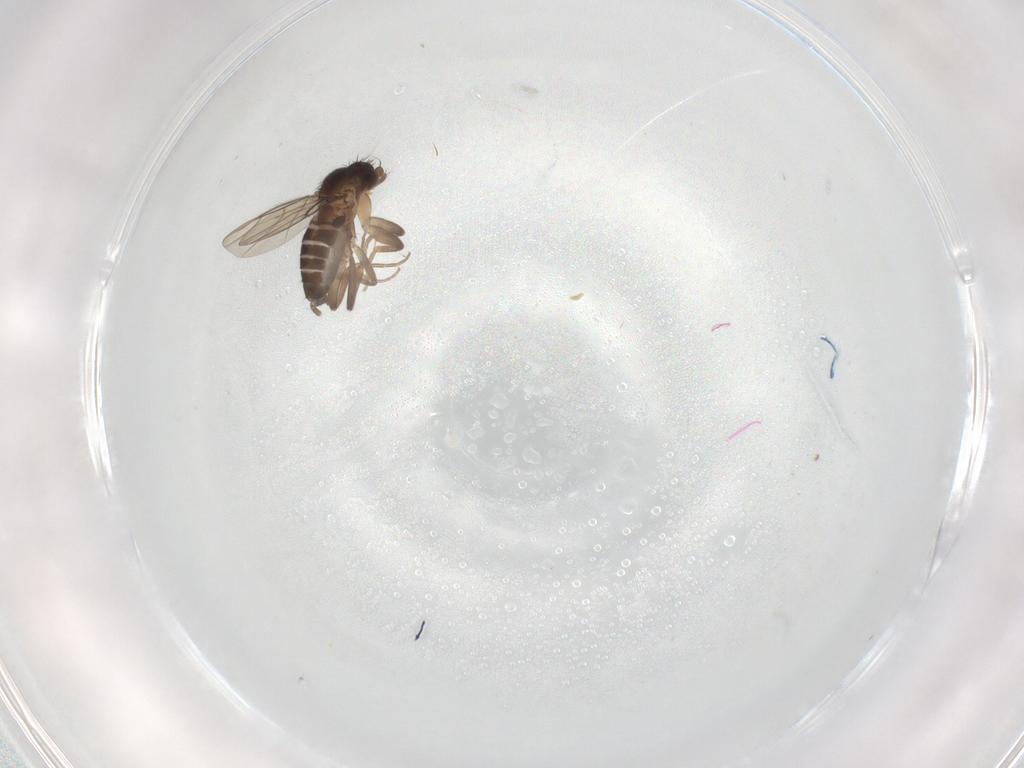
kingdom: Animalia
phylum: Arthropoda
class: Insecta
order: Diptera
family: Phoridae
